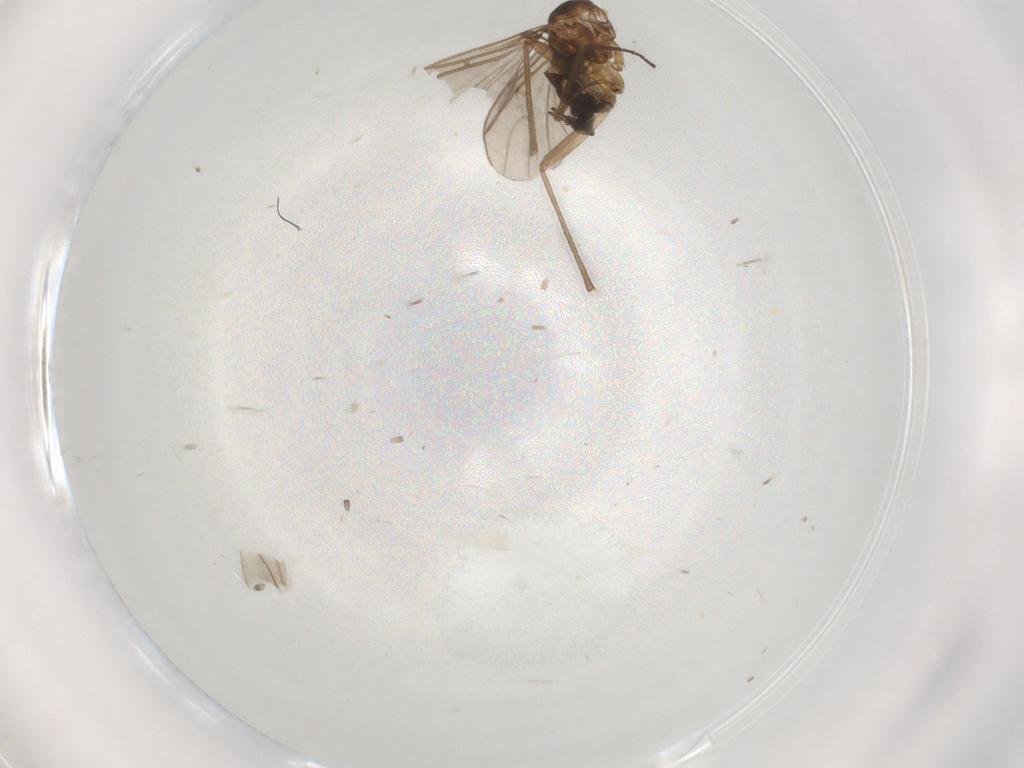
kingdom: Animalia
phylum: Arthropoda
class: Insecta
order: Diptera
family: Sciaridae
